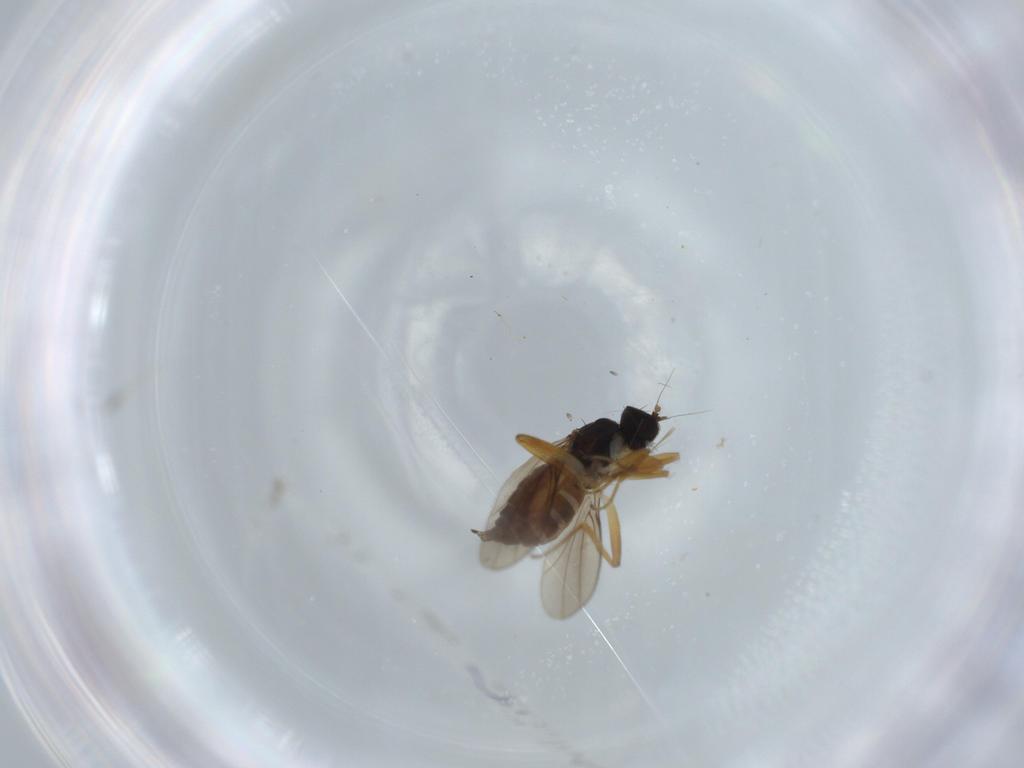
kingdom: Animalia
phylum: Arthropoda
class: Insecta
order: Diptera
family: Hybotidae
